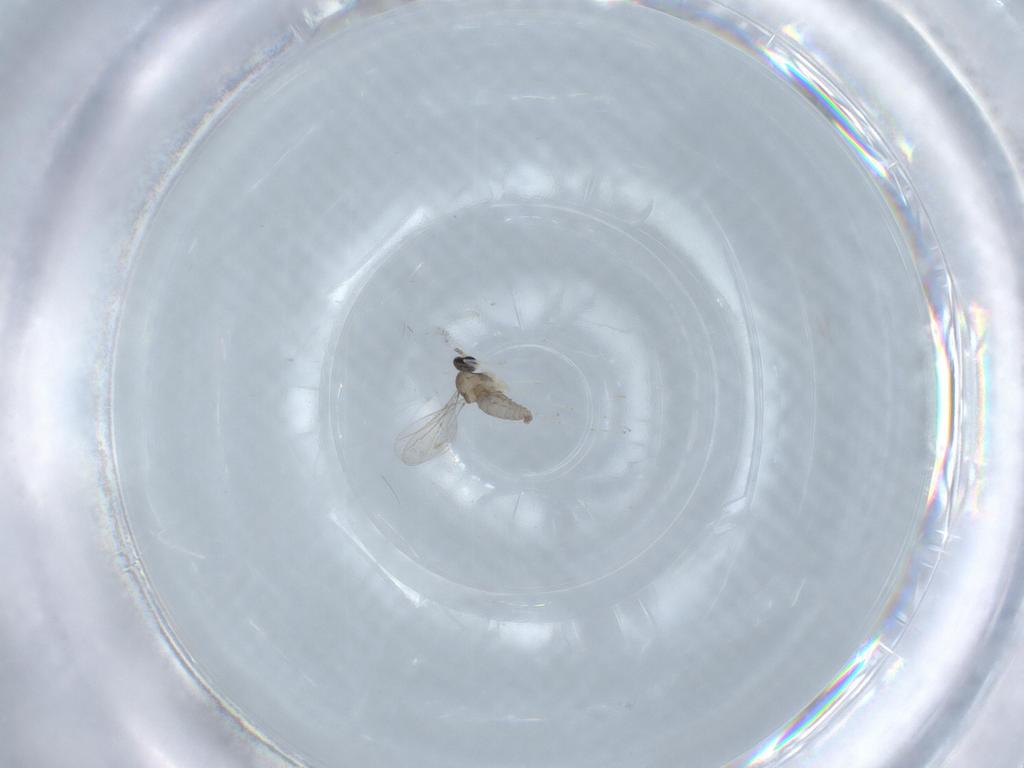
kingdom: Animalia
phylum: Arthropoda
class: Insecta
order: Diptera
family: Cecidomyiidae
